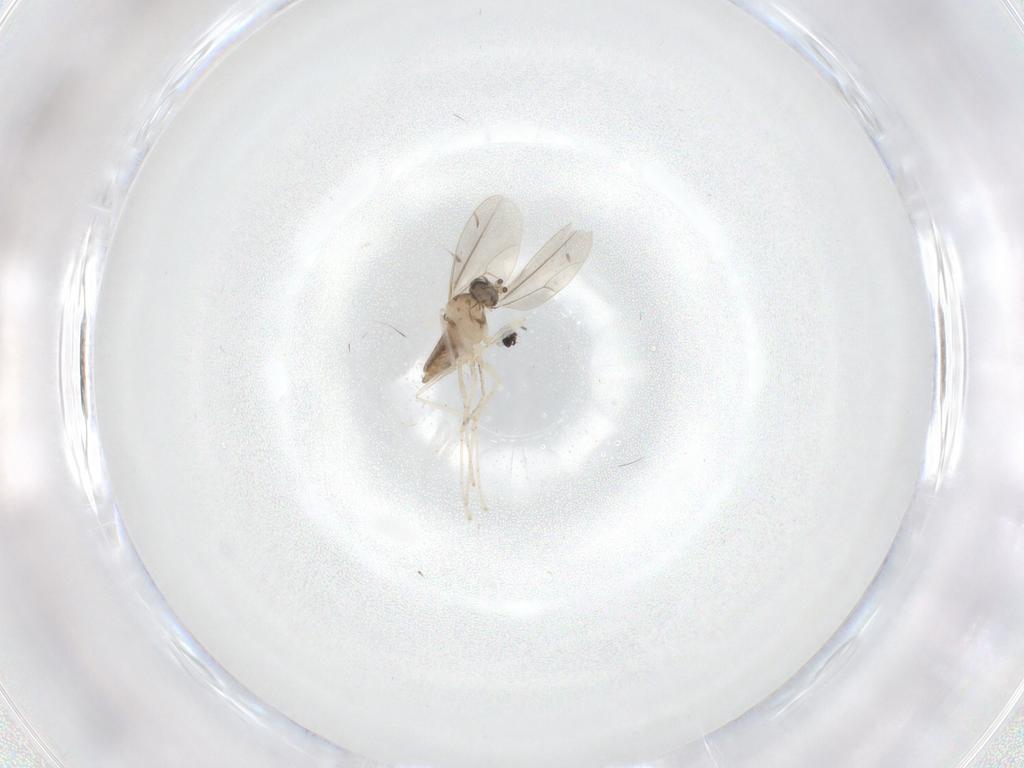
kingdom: Animalia
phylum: Arthropoda
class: Insecta
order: Diptera
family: Cecidomyiidae
